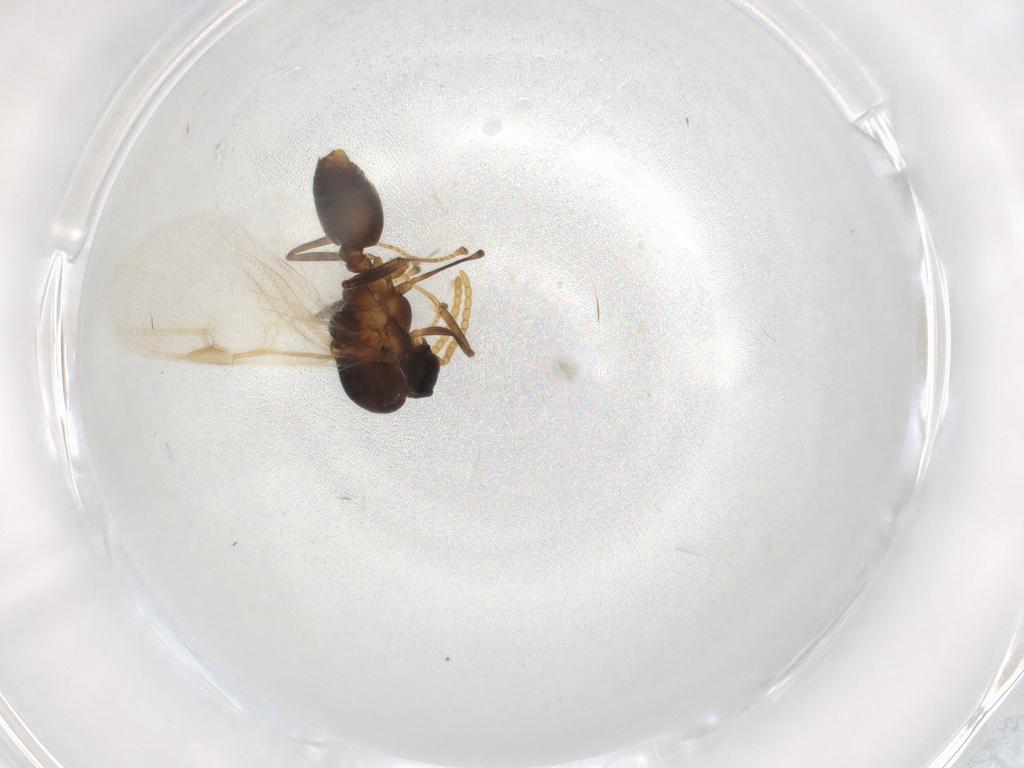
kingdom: Animalia
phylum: Arthropoda
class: Insecta
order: Hymenoptera
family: Formicidae
